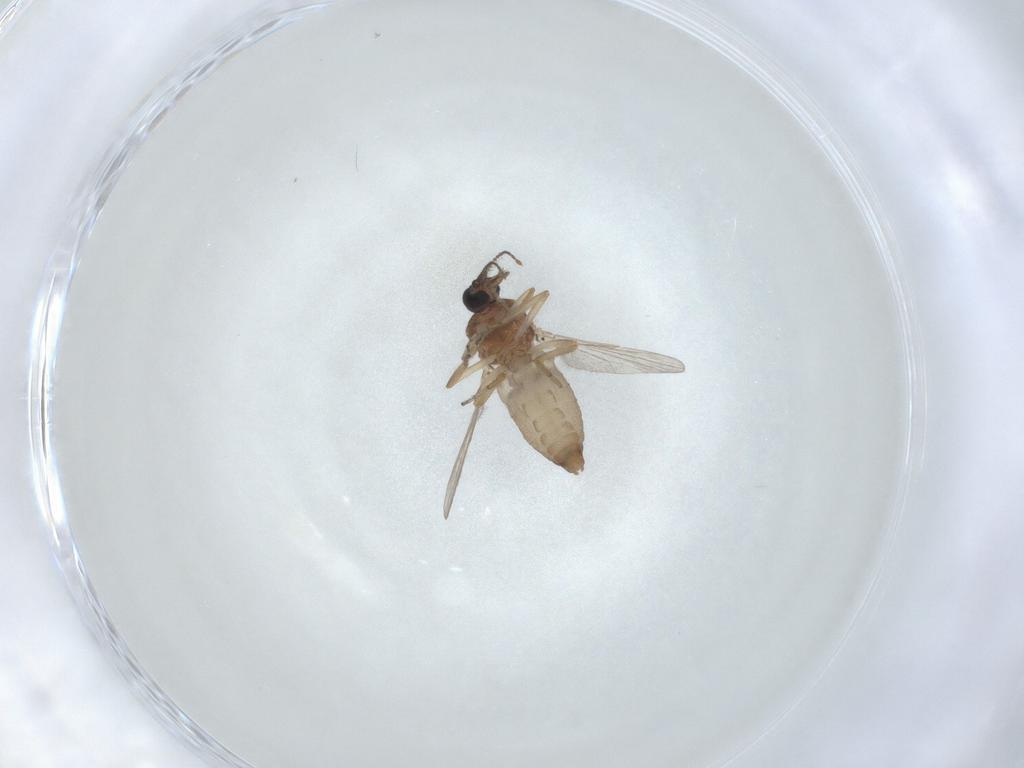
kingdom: Animalia
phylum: Arthropoda
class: Insecta
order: Diptera
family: Ceratopogonidae
